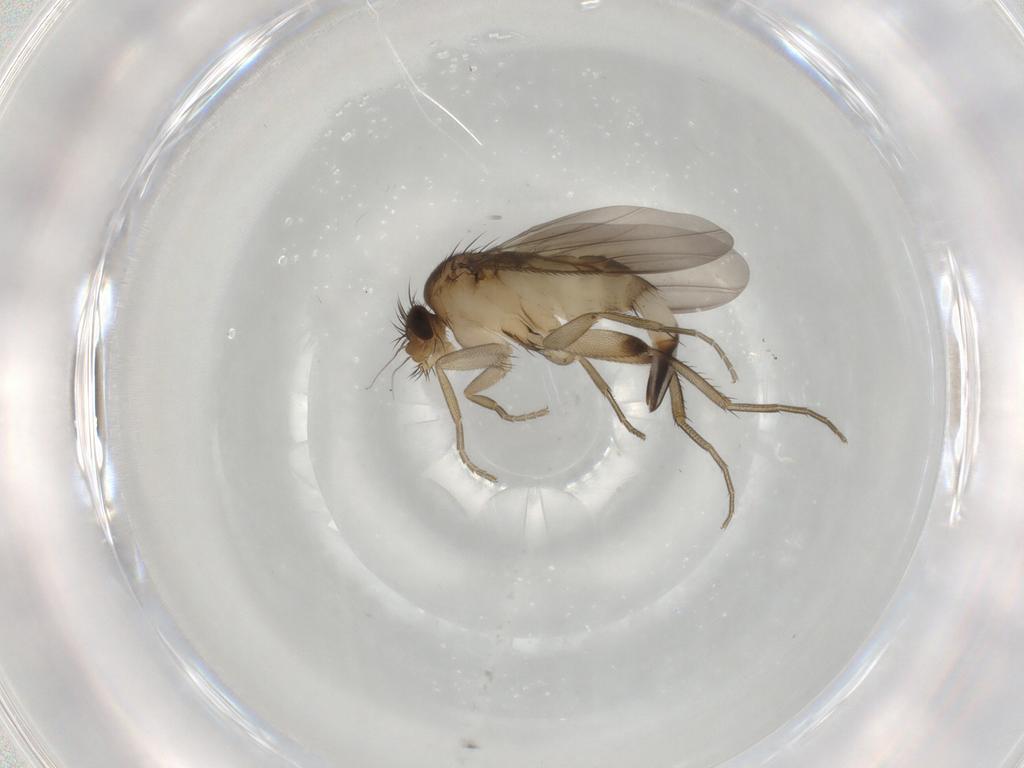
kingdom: Animalia
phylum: Arthropoda
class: Insecta
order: Diptera
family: Phoridae
